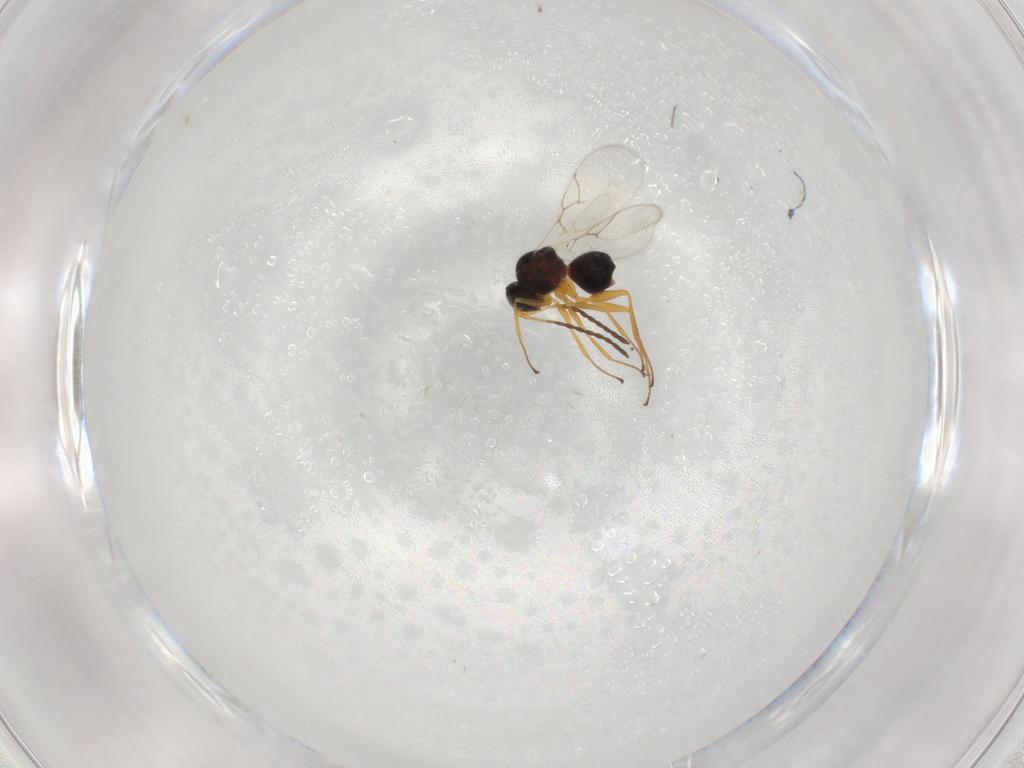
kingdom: Animalia
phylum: Arthropoda
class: Insecta
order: Hymenoptera
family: Figitidae
